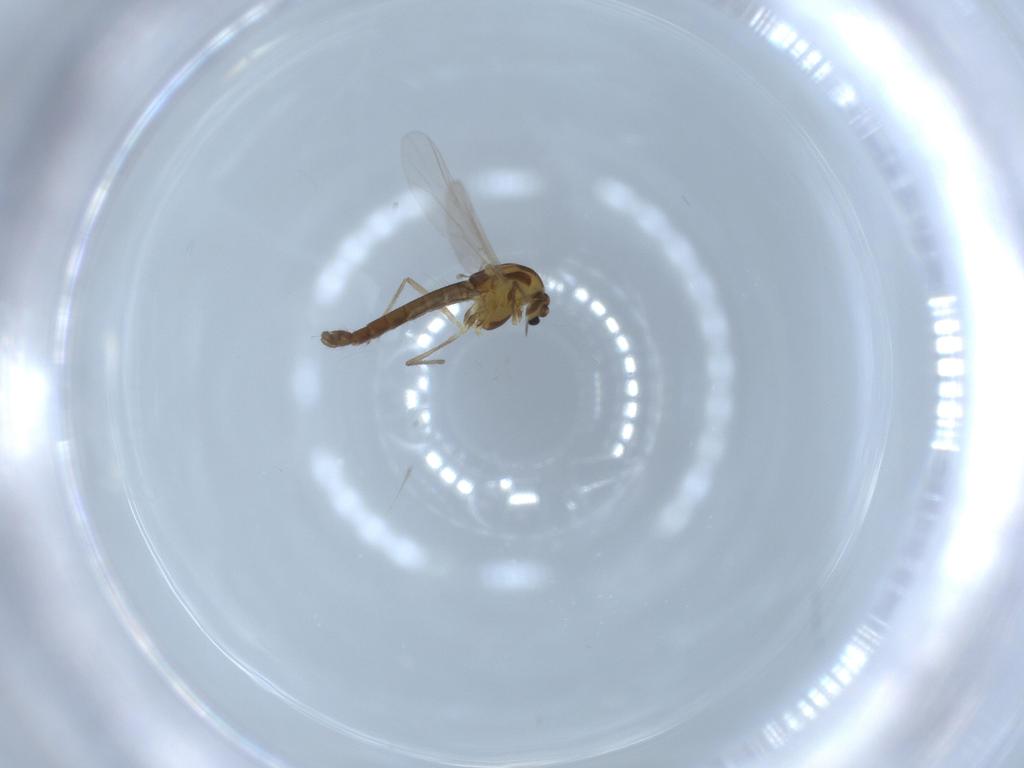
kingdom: Animalia
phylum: Arthropoda
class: Insecta
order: Diptera
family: Chironomidae
